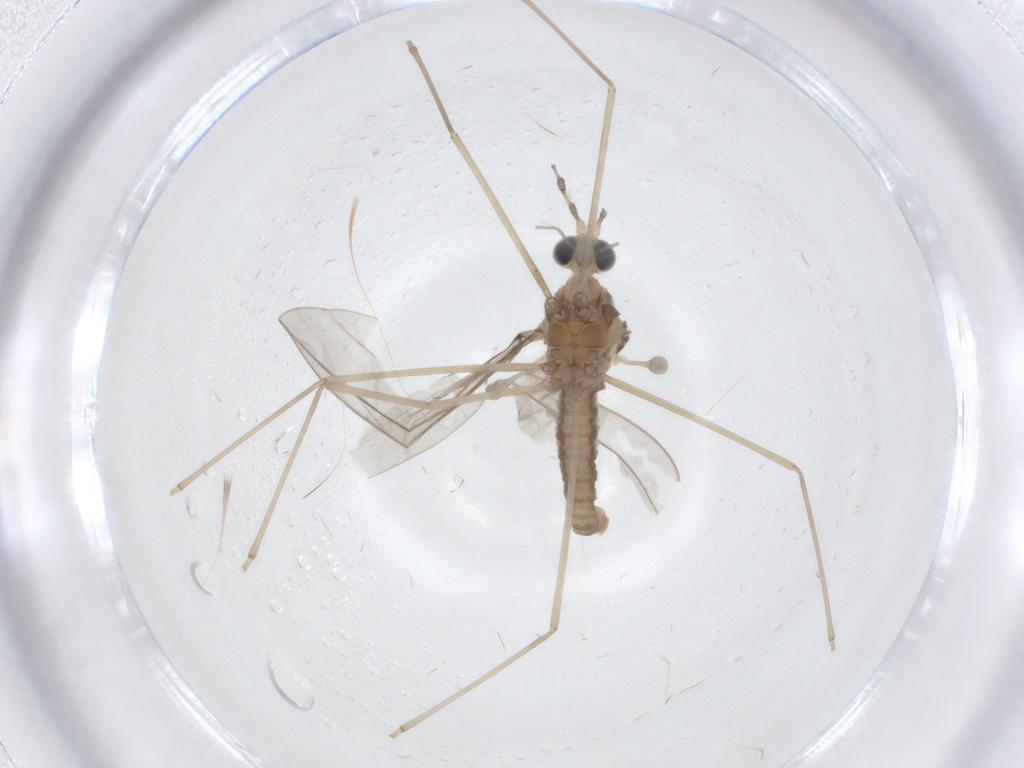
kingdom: Animalia
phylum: Arthropoda
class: Insecta
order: Diptera
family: Cecidomyiidae
